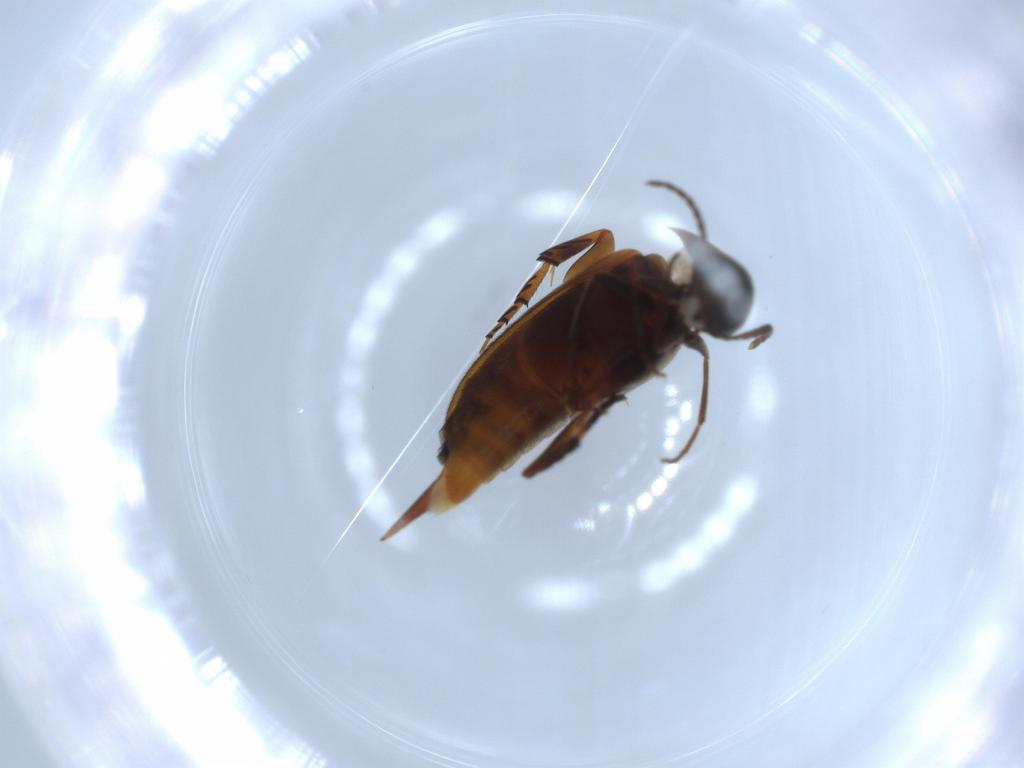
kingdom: Animalia
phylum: Arthropoda
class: Insecta
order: Coleoptera
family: Mordellidae
